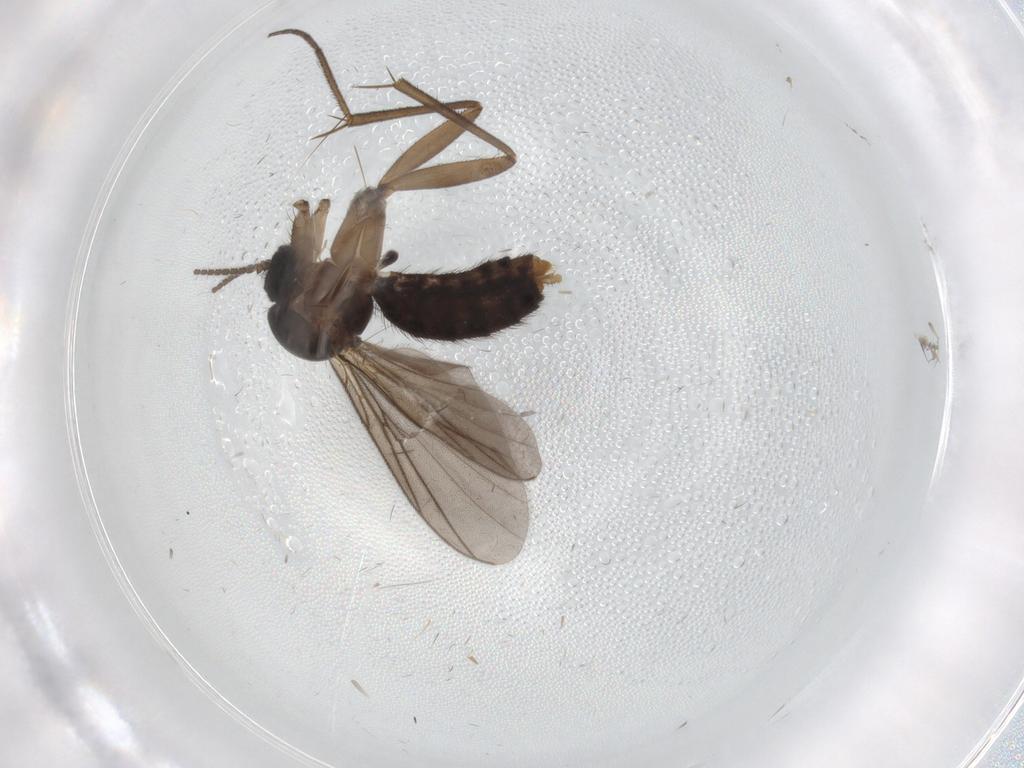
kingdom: Animalia
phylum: Arthropoda
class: Insecta
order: Diptera
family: Mycetophilidae
